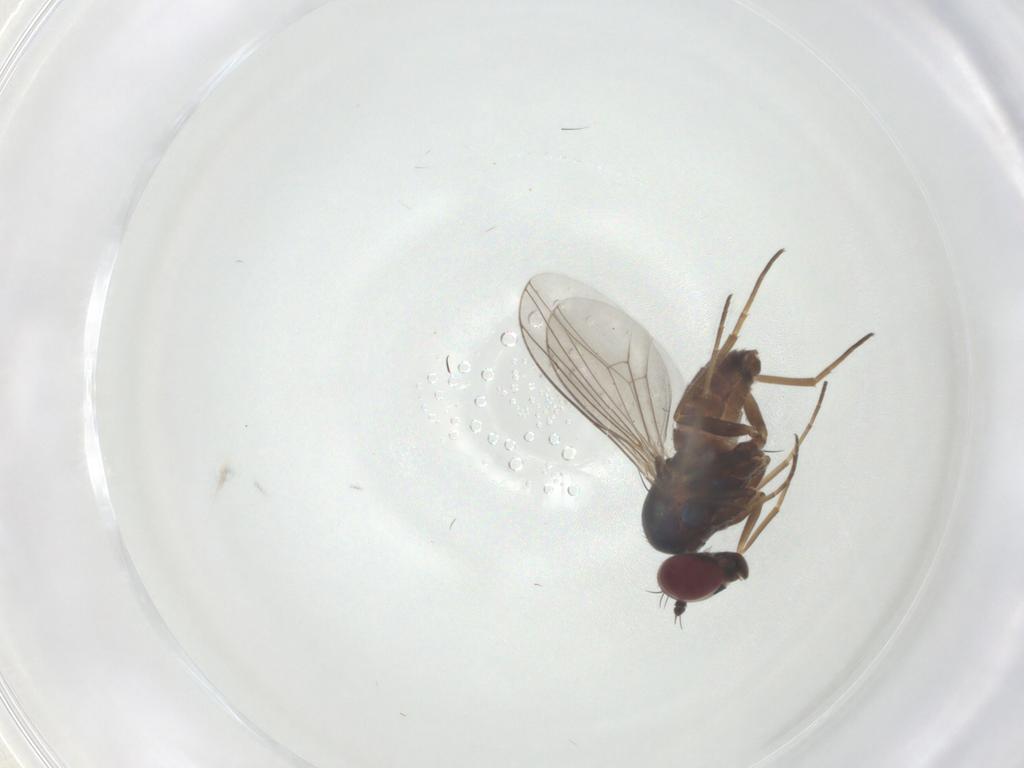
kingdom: Animalia
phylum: Arthropoda
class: Insecta
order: Diptera
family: Dolichopodidae
